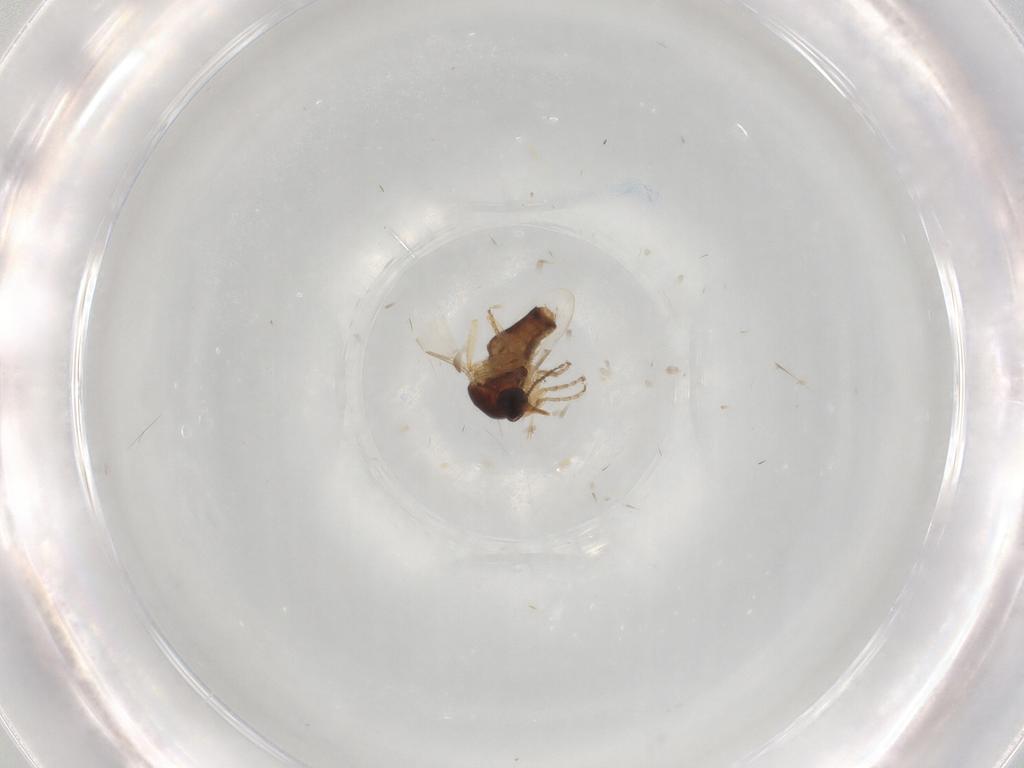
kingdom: Animalia
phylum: Arthropoda
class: Insecta
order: Diptera
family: Ceratopogonidae
